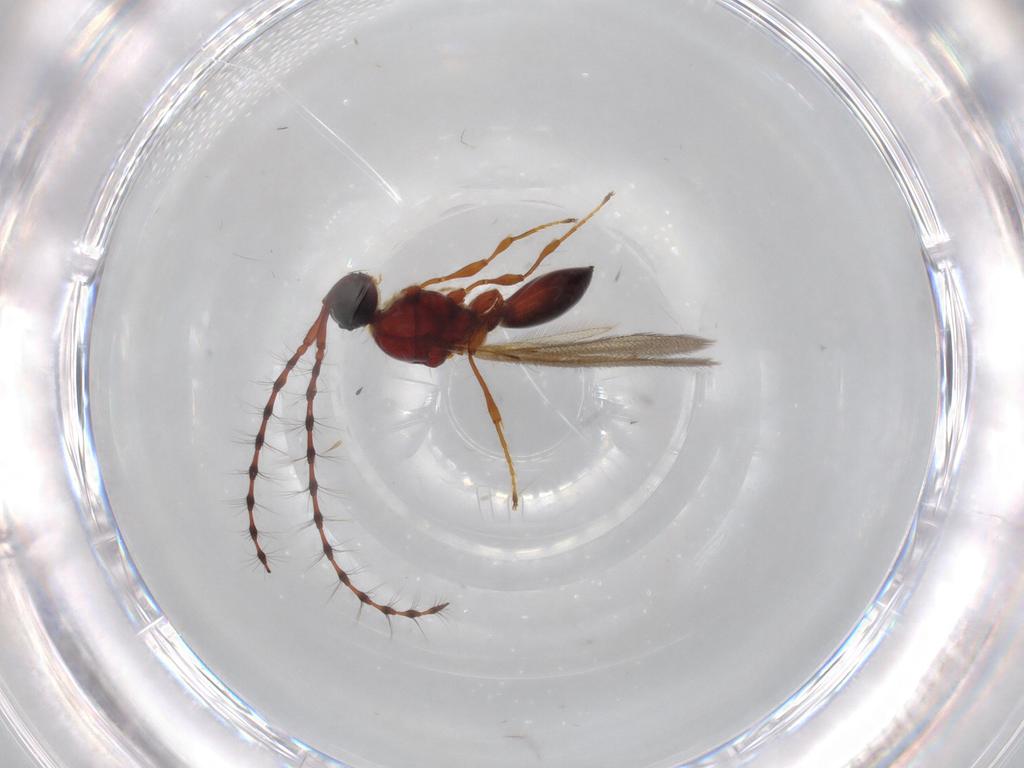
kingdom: Animalia
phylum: Arthropoda
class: Insecta
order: Hymenoptera
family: Diapriidae
